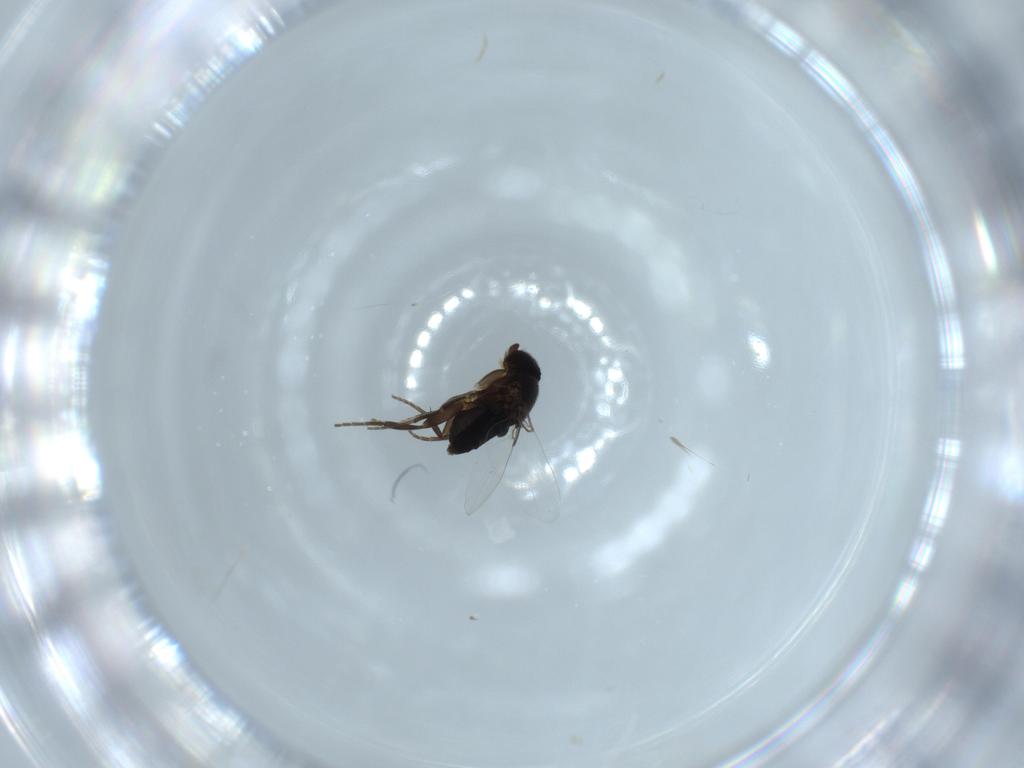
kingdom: Animalia
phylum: Arthropoda
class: Insecta
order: Diptera
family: Phoridae
